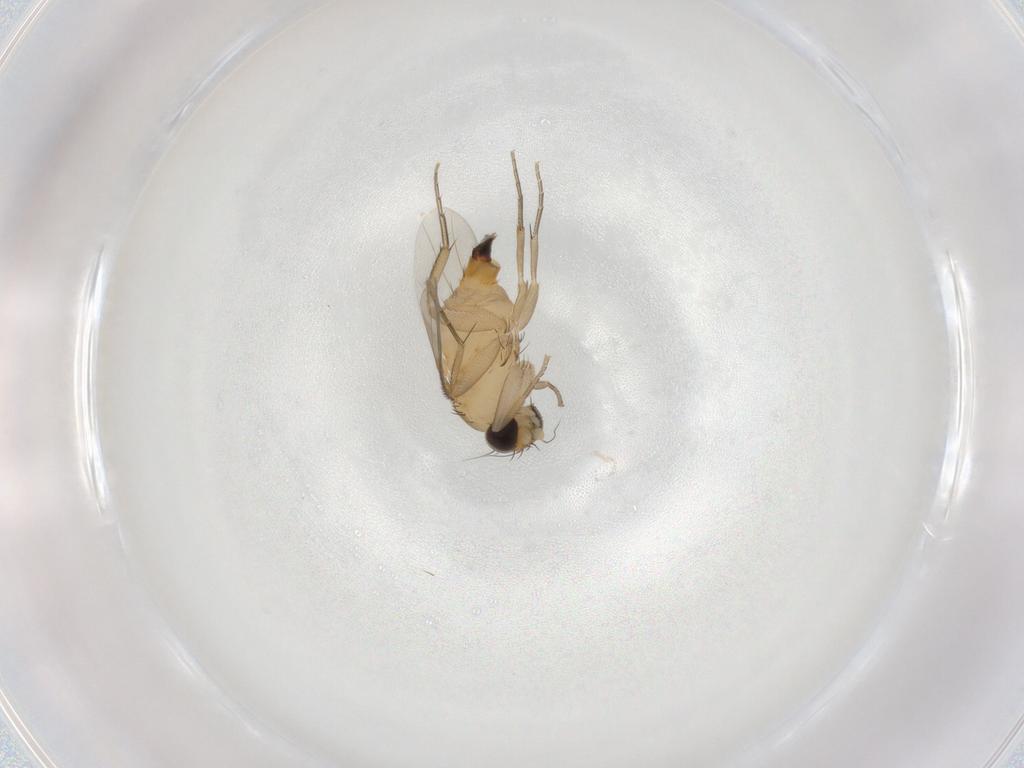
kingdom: Animalia
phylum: Arthropoda
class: Insecta
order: Diptera
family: Phoridae
